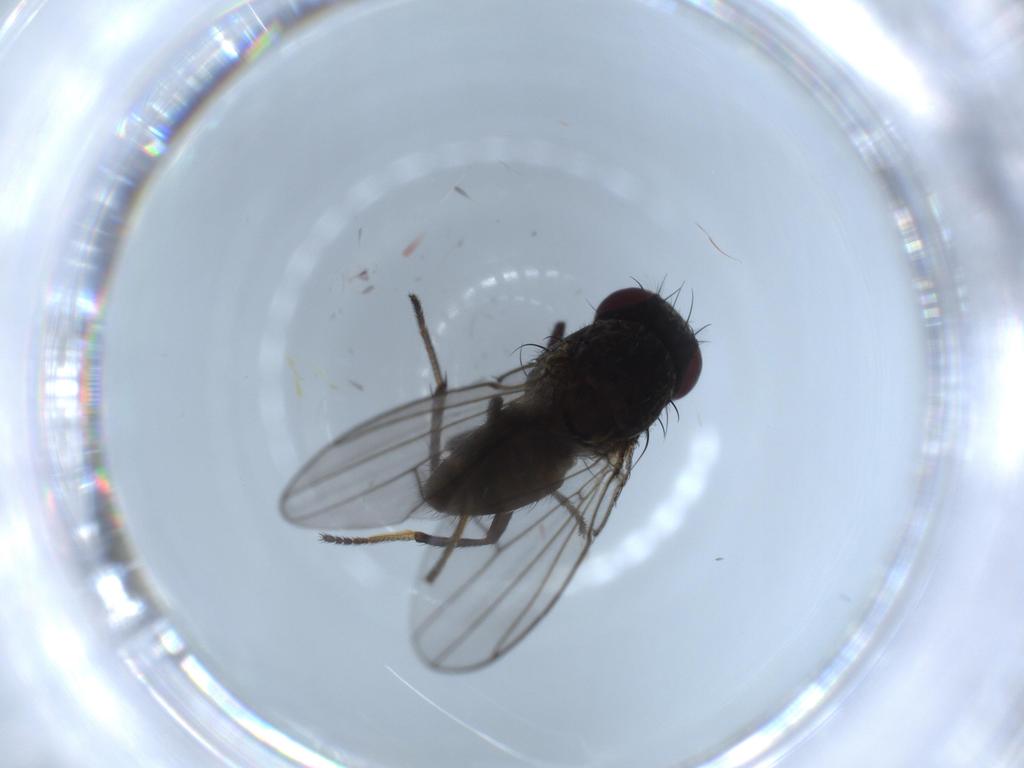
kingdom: Animalia
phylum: Arthropoda
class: Insecta
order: Diptera
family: Ephydridae
